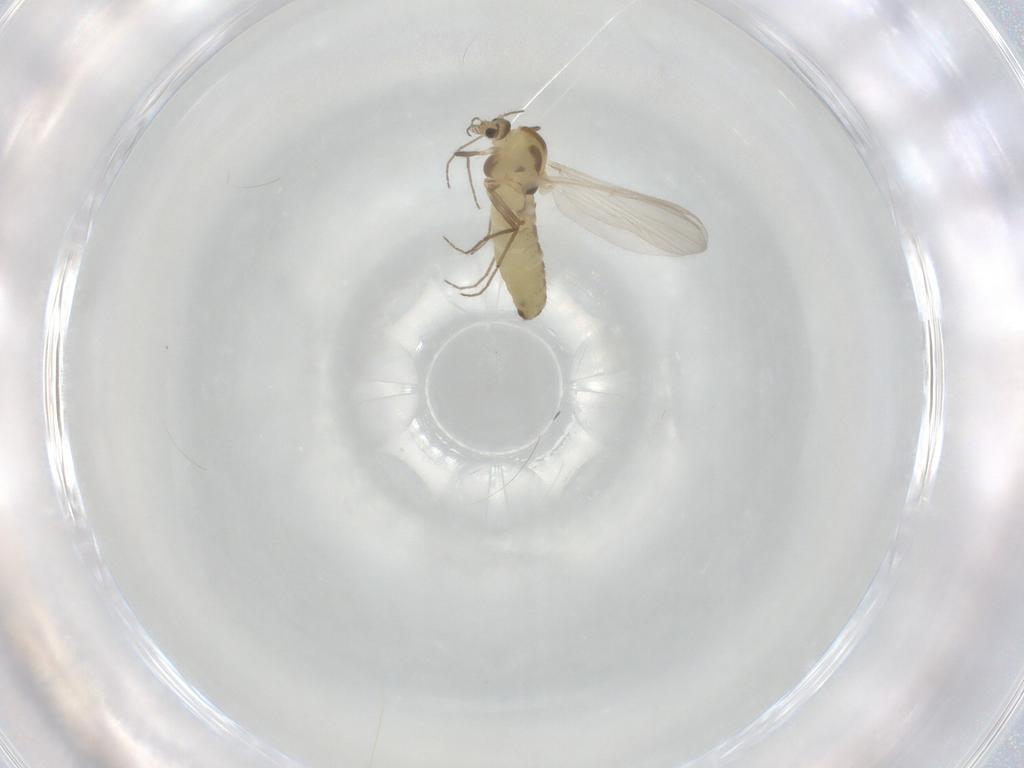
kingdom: Animalia
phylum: Arthropoda
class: Insecta
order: Diptera
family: Chironomidae
